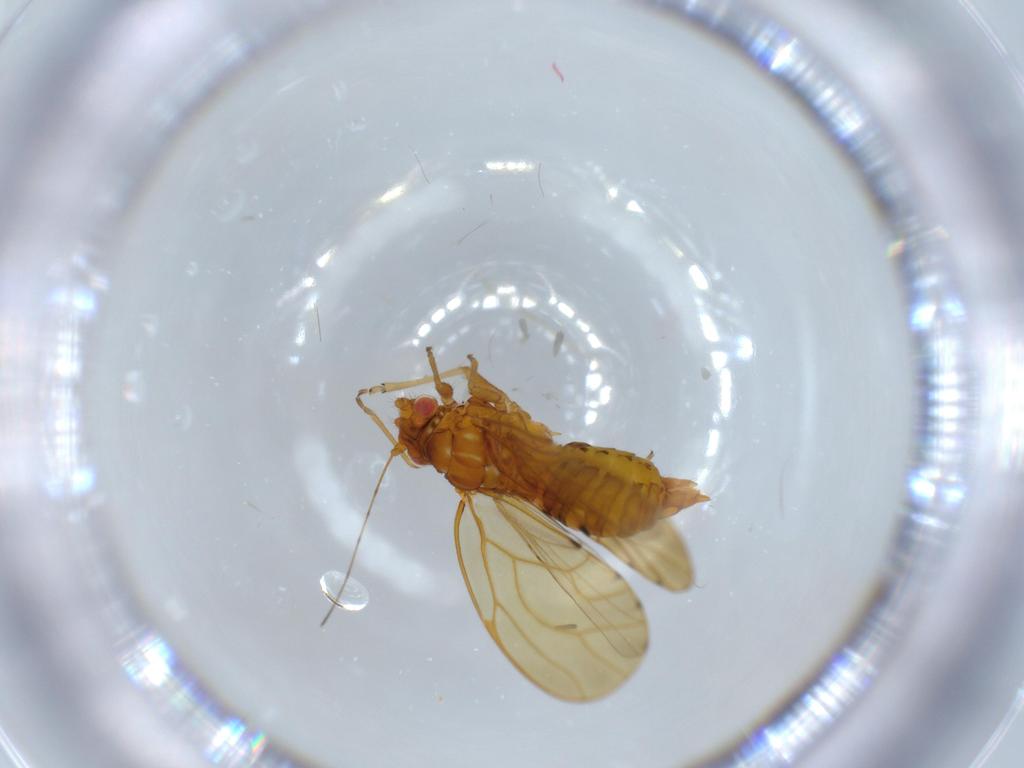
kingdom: Animalia
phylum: Arthropoda
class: Insecta
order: Hemiptera
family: Psylloidea_incertae_sedis
